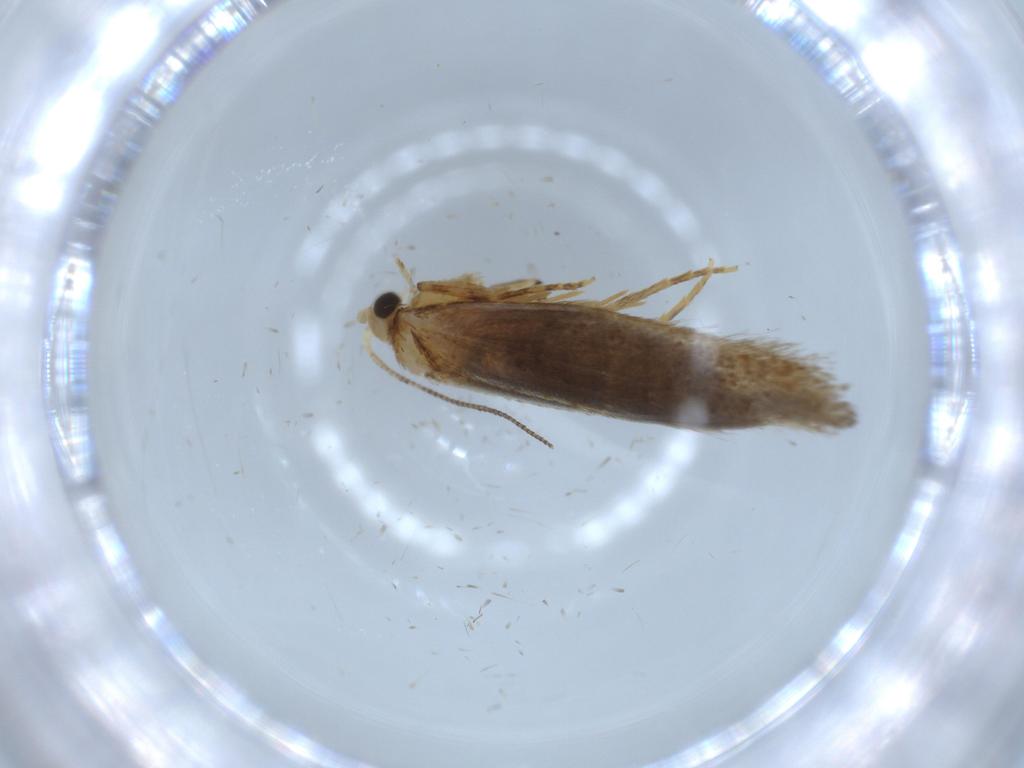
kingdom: Animalia
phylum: Arthropoda
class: Insecta
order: Lepidoptera
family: Tineidae
